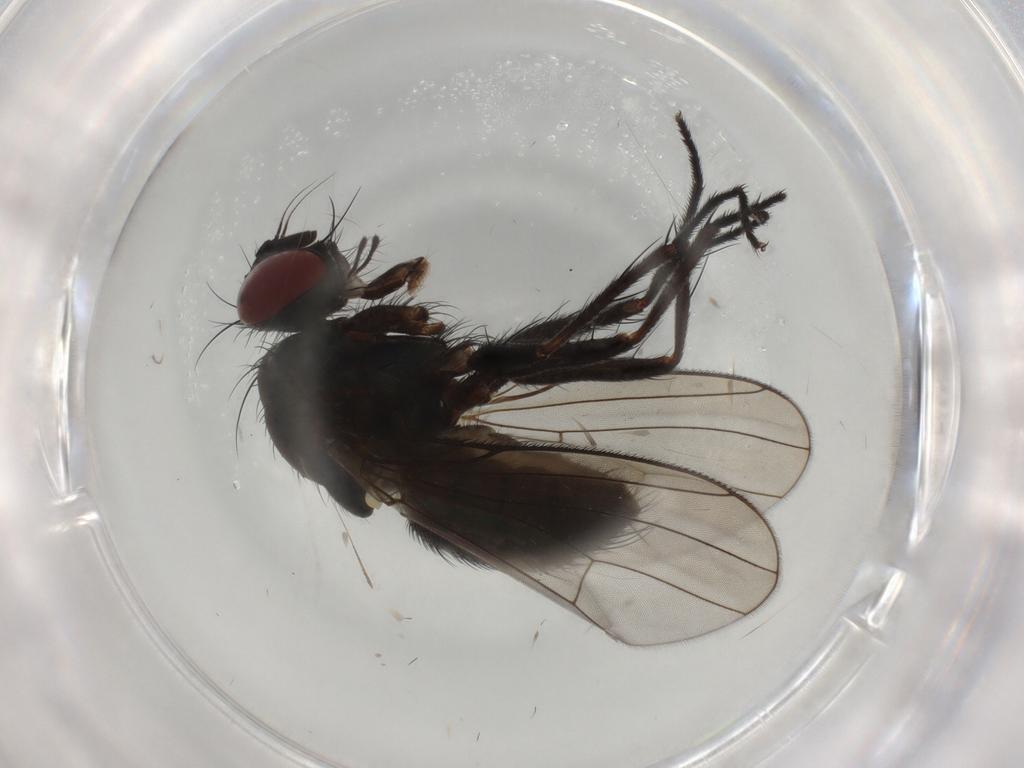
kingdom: Animalia
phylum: Arthropoda
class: Insecta
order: Diptera
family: Muscidae
